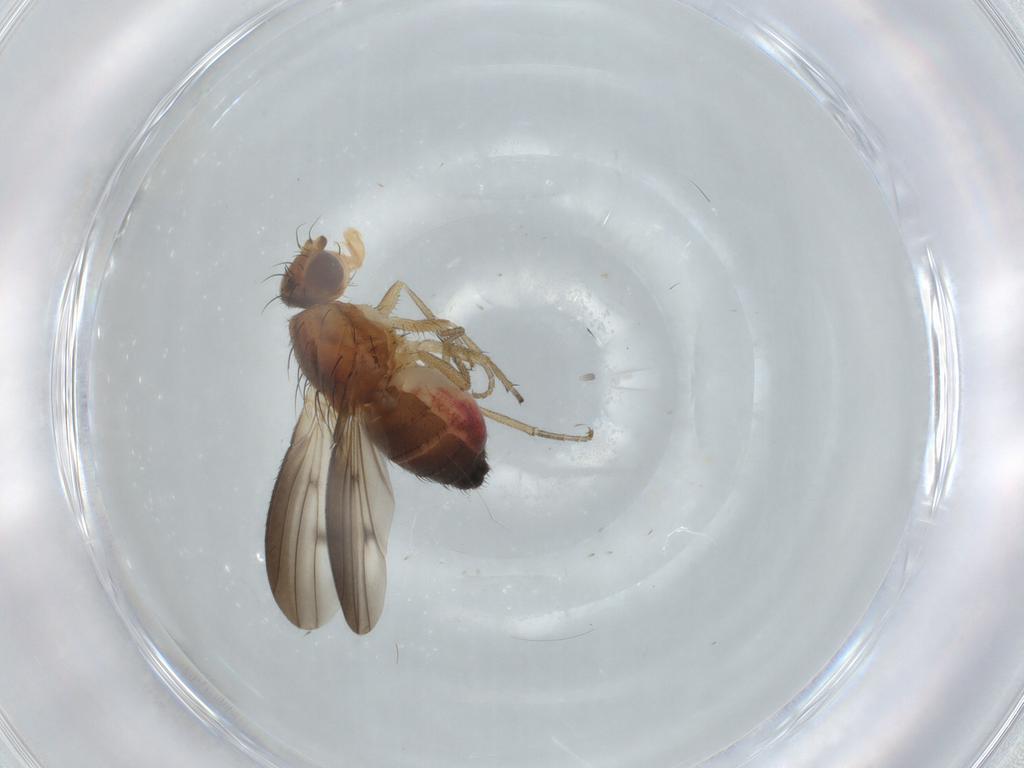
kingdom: Animalia
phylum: Arthropoda
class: Insecta
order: Diptera
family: Heleomyzidae
